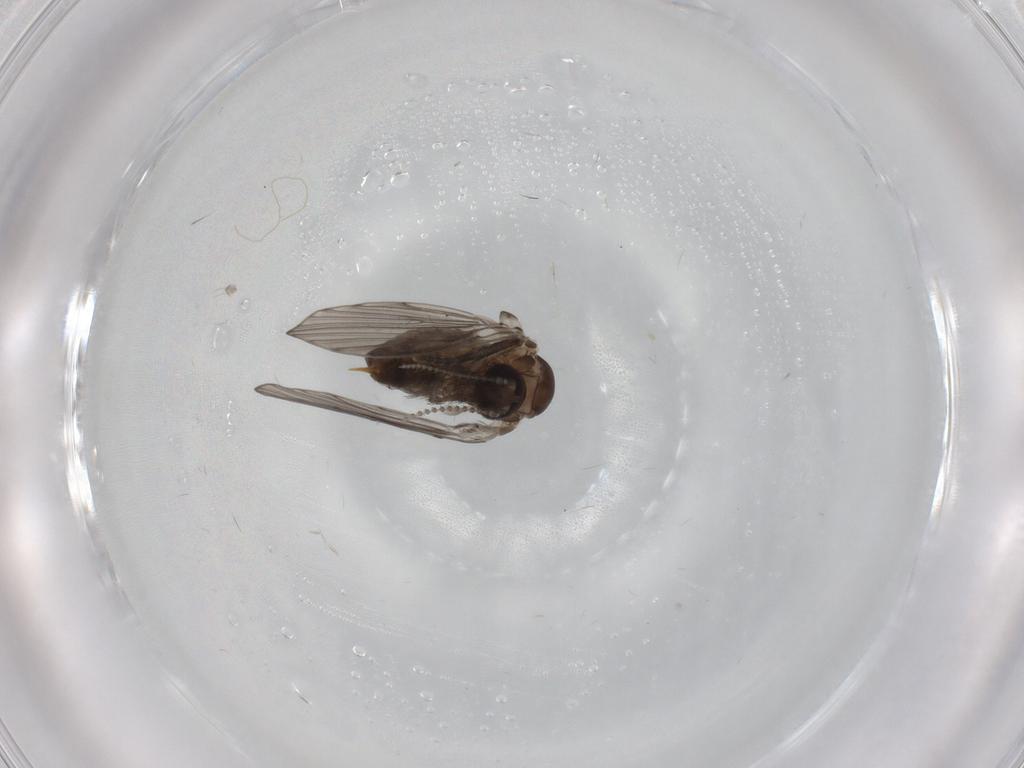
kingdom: Animalia
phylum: Arthropoda
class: Insecta
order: Diptera
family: Psychodidae
